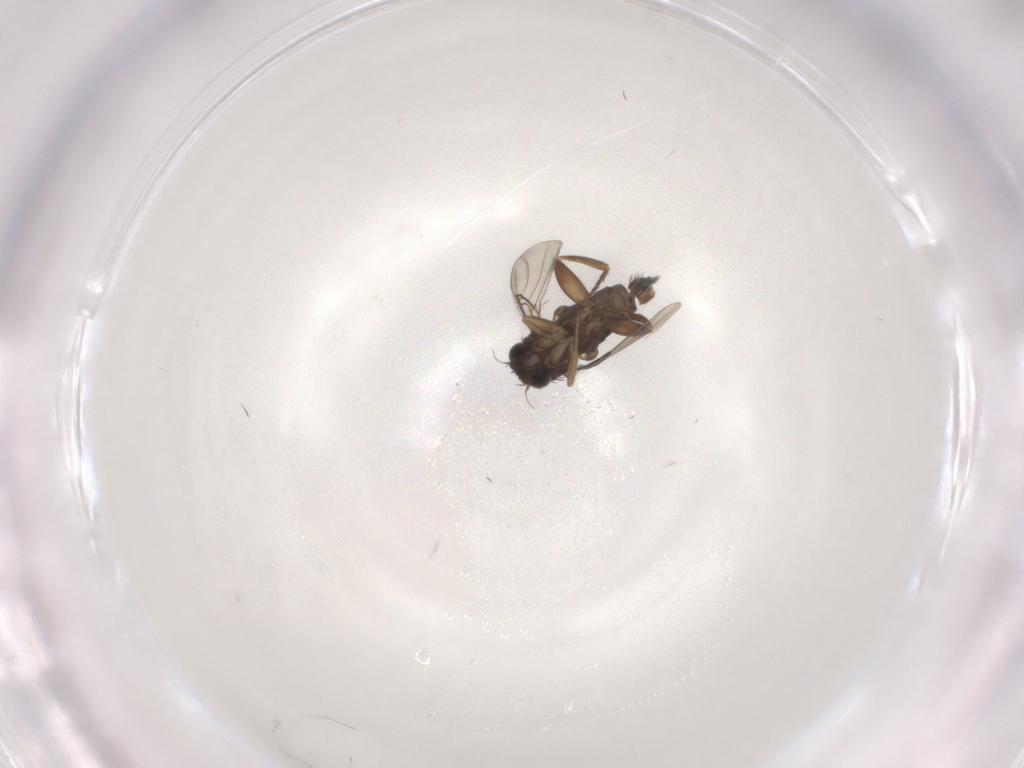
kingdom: Animalia
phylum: Arthropoda
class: Insecta
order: Diptera
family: Phoridae
